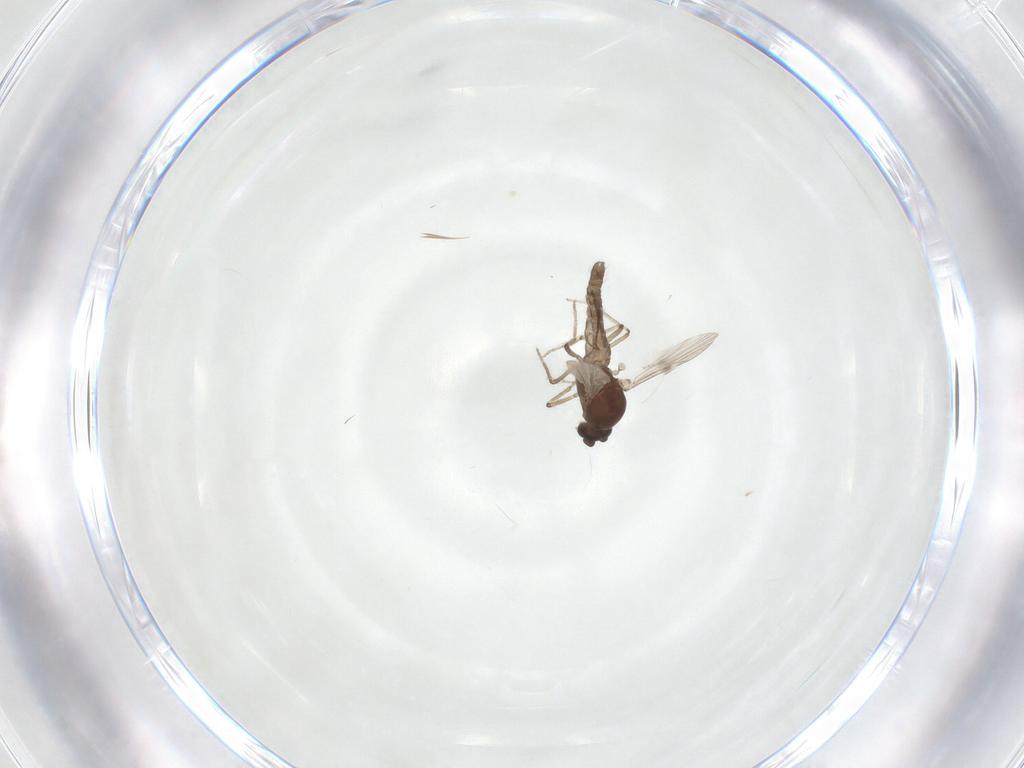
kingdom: Animalia
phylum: Arthropoda
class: Insecta
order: Diptera
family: Ceratopogonidae
